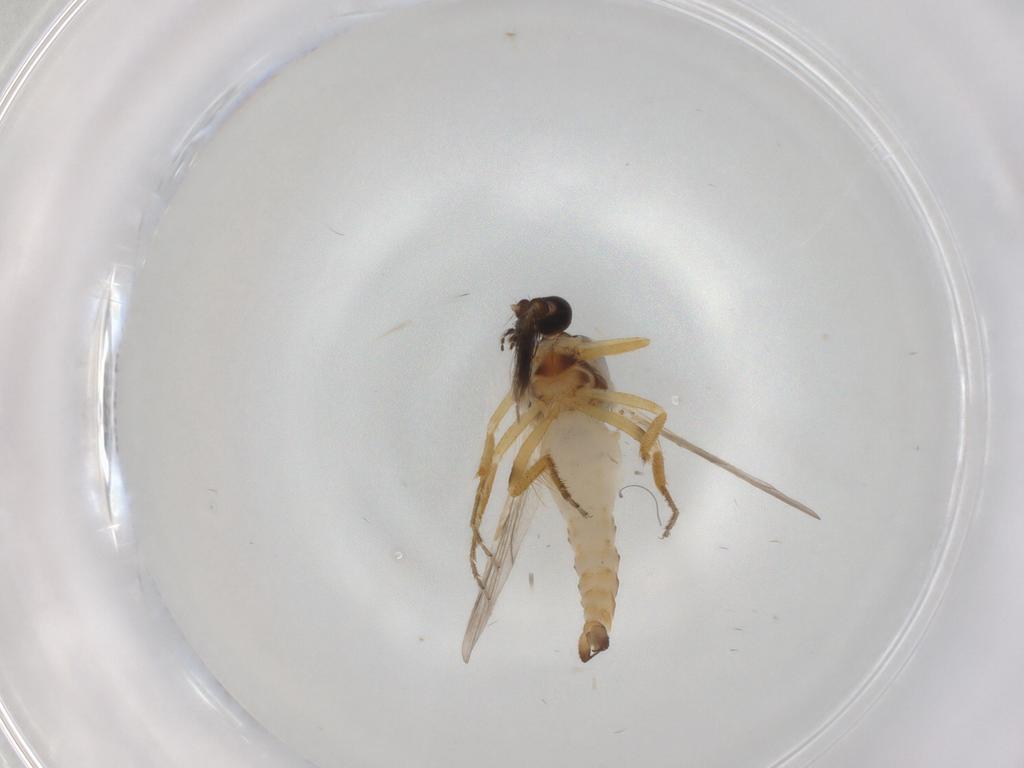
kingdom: Animalia
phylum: Arthropoda
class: Insecta
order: Diptera
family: Ceratopogonidae
